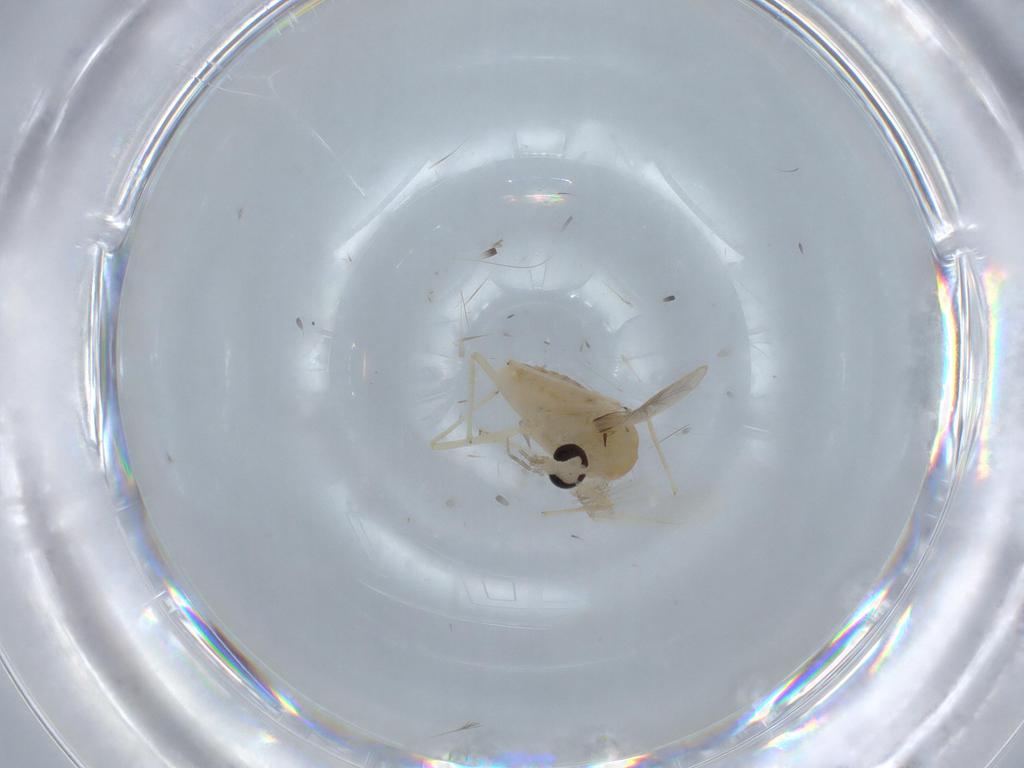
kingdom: Animalia
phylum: Arthropoda
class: Insecta
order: Diptera
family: Chironomidae
